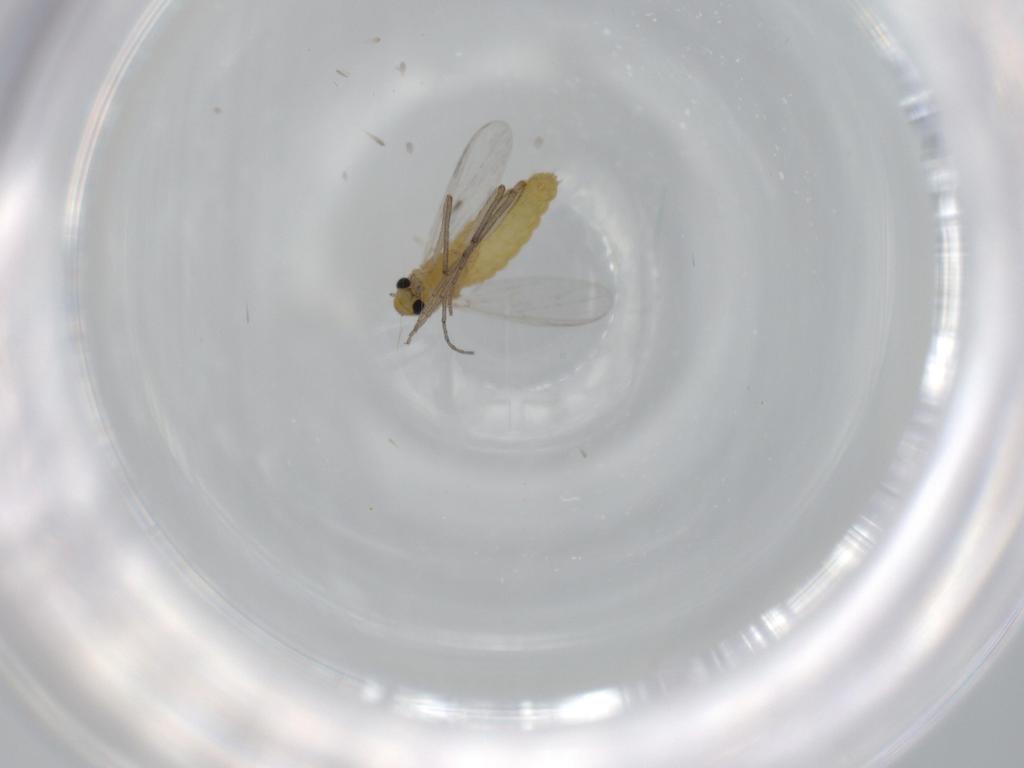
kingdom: Animalia
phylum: Arthropoda
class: Insecta
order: Diptera
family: Chironomidae
